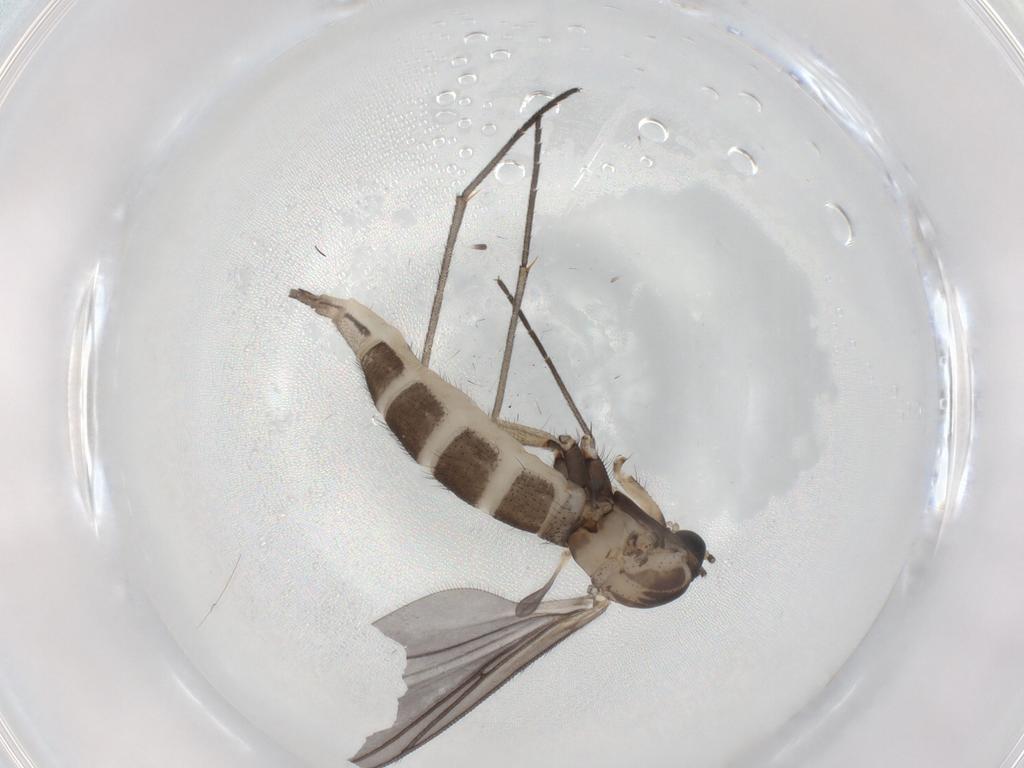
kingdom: Animalia
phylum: Arthropoda
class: Insecta
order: Diptera
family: Sciaridae
